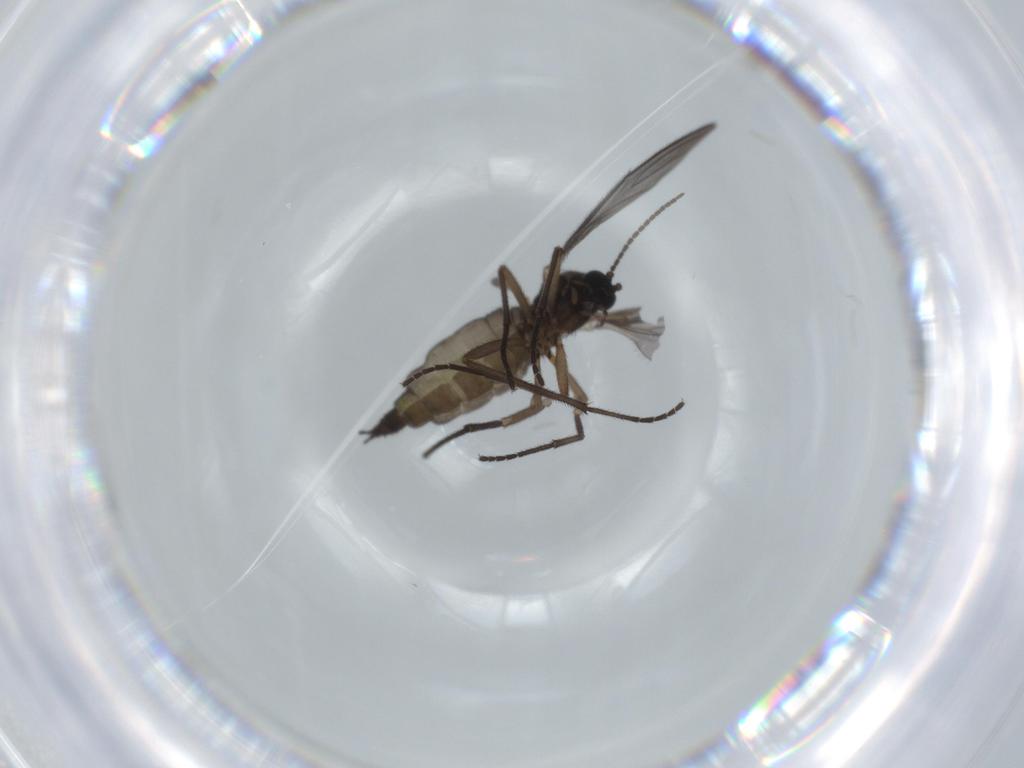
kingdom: Animalia
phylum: Arthropoda
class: Insecta
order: Diptera
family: Sciaridae
